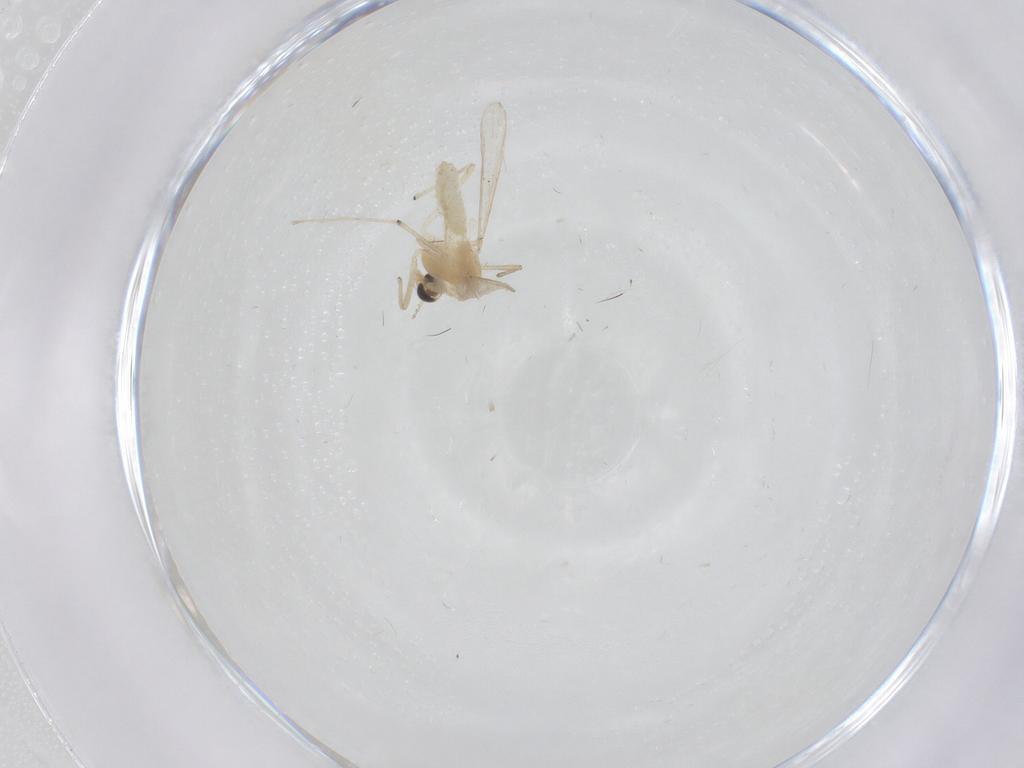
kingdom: Animalia
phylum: Arthropoda
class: Insecta
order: Diptera
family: Chironomidae
